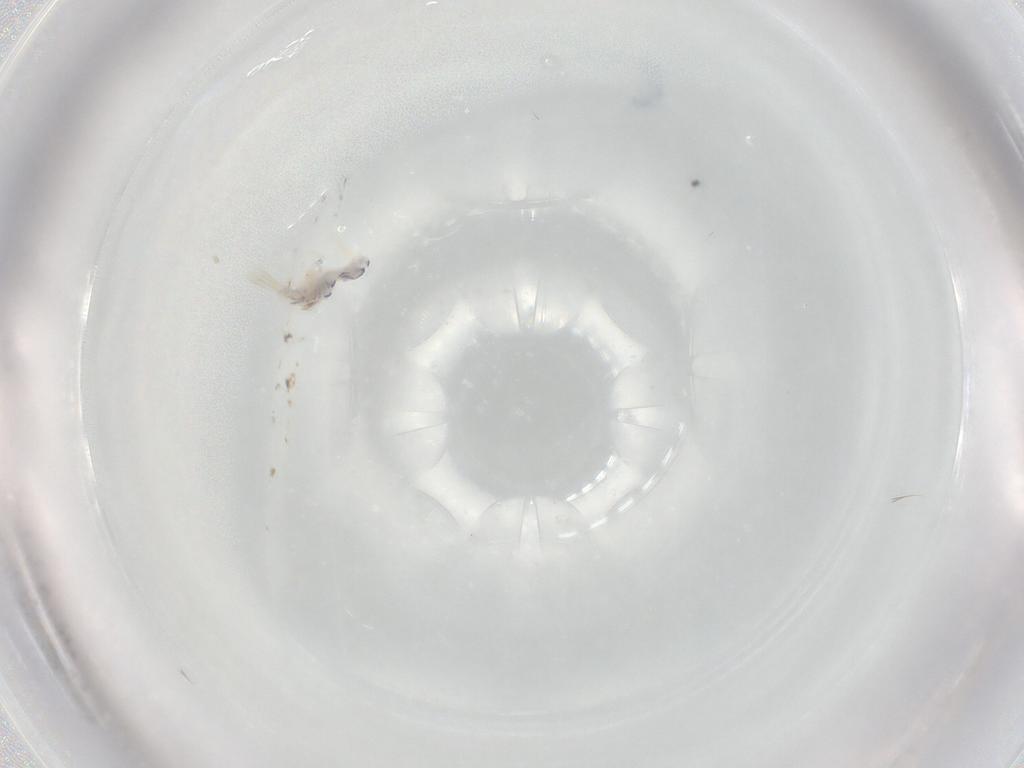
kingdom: Animalia
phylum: Arthropoda
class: Collembola
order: Entomobryomorpha
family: Entomobryidae
